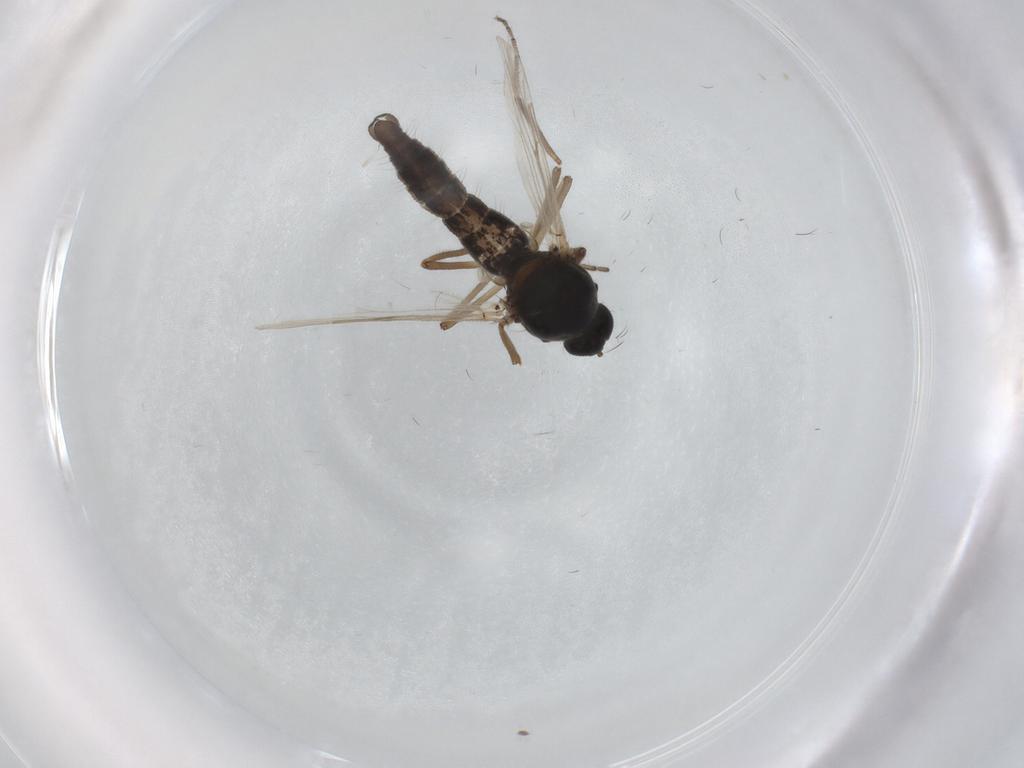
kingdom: Animalia
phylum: Arthropoda
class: Insecta
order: Diptera
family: Ceratopogonidae
